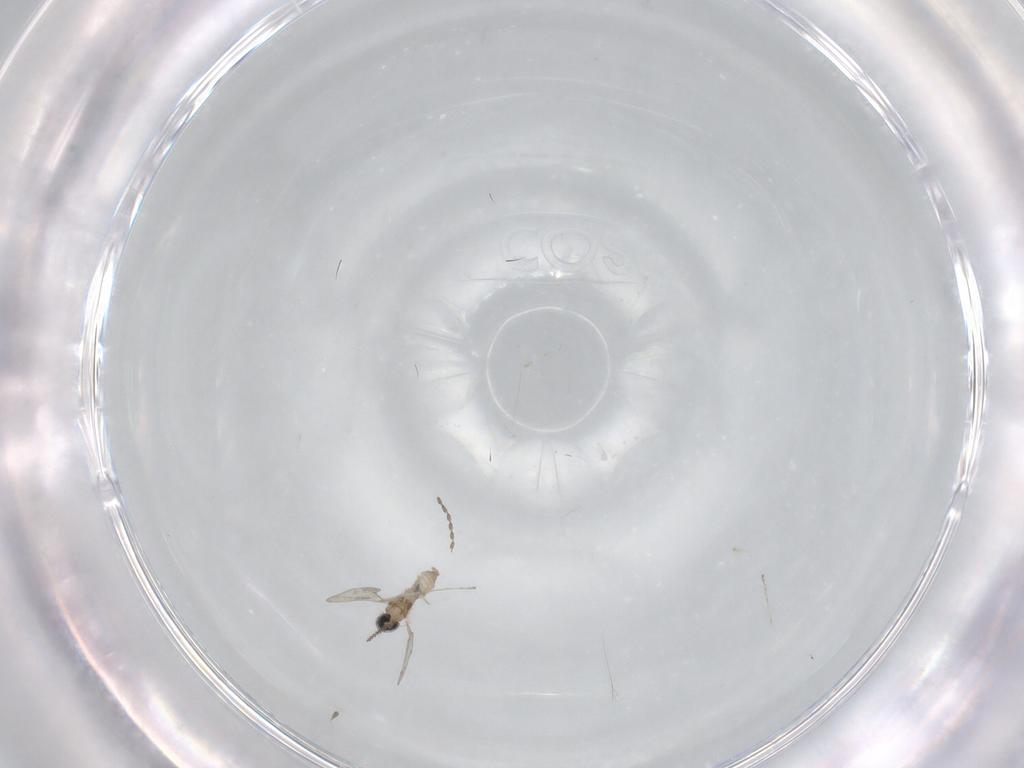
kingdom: Animalia
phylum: Arthropoda
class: Insecta
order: Diptera
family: Cecidomyiidae
